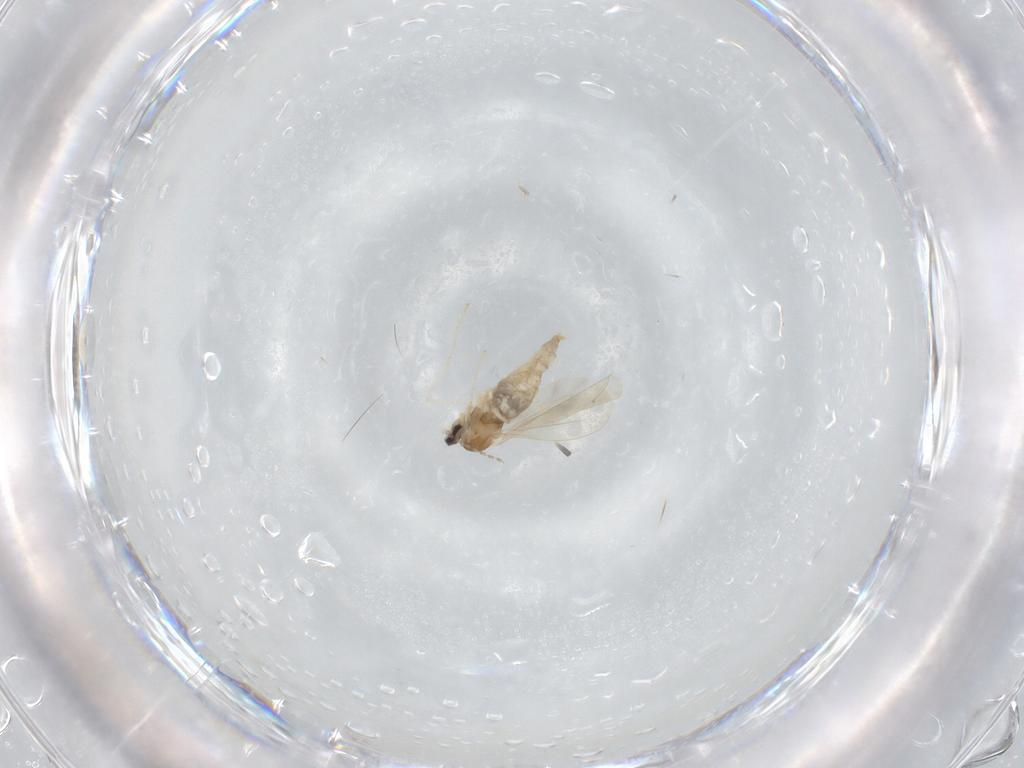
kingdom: Animalia
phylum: Arthropoda
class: Insecta
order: Diptera
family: Cecidomyiidae
